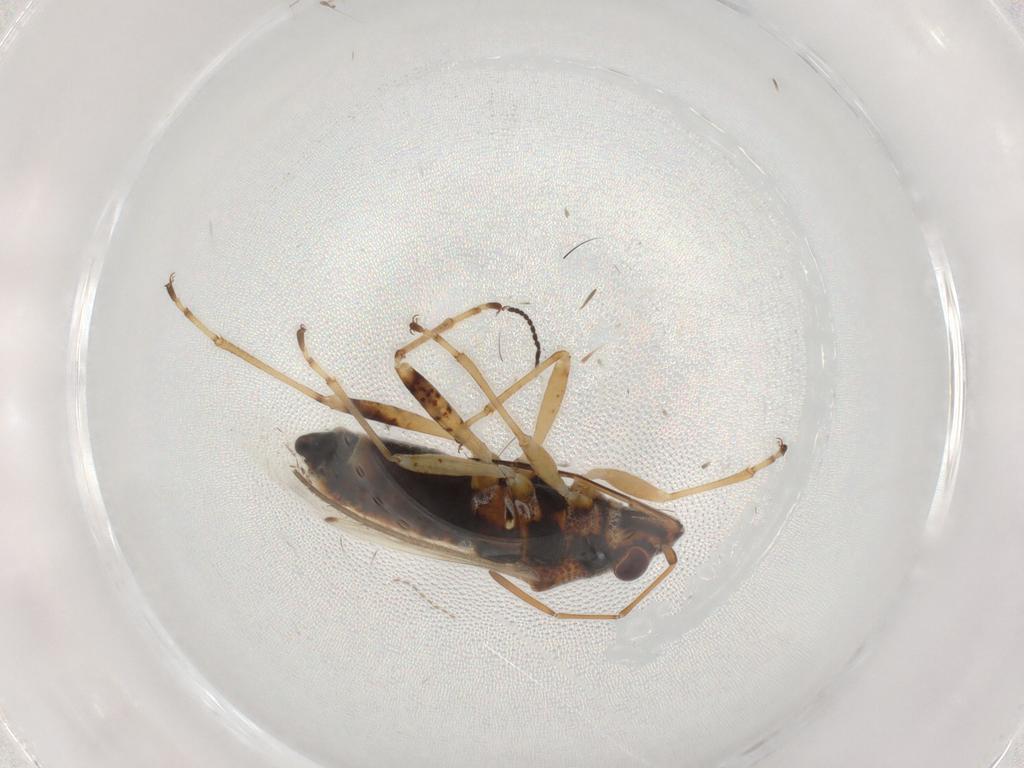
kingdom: Animalia
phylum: Arthropoda
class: Insecta
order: Hemiptera
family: Lygaeidae
